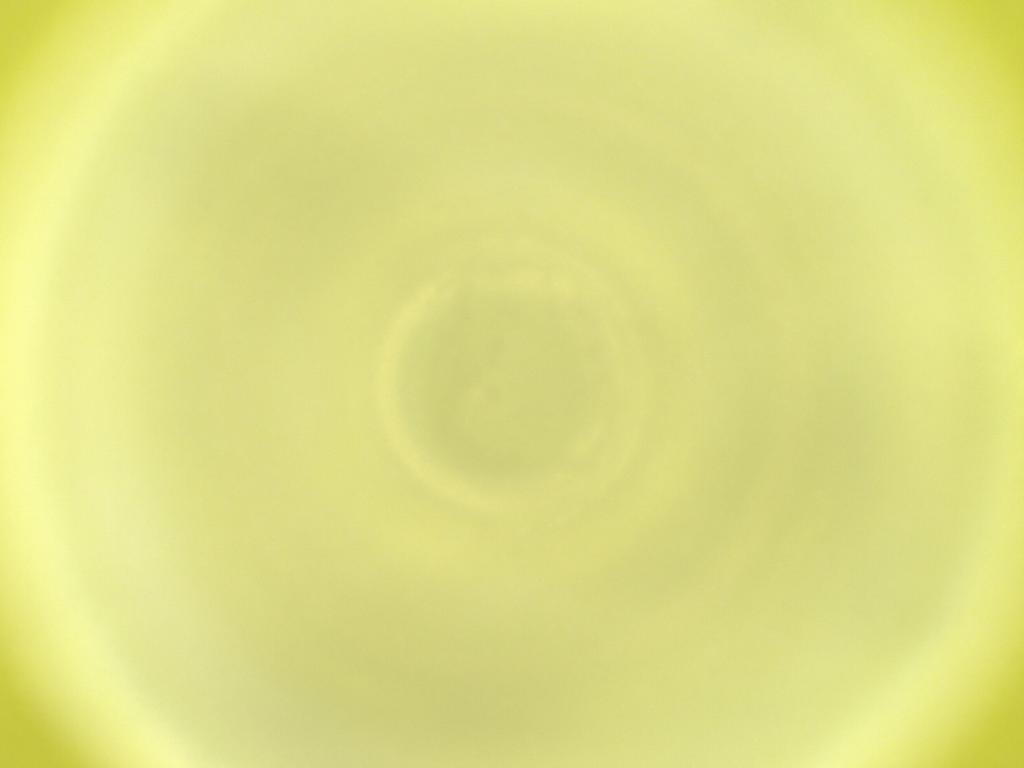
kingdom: Animalia
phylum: Arthropoda
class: Insecta
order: Diptera
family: Cecidomyiidae
